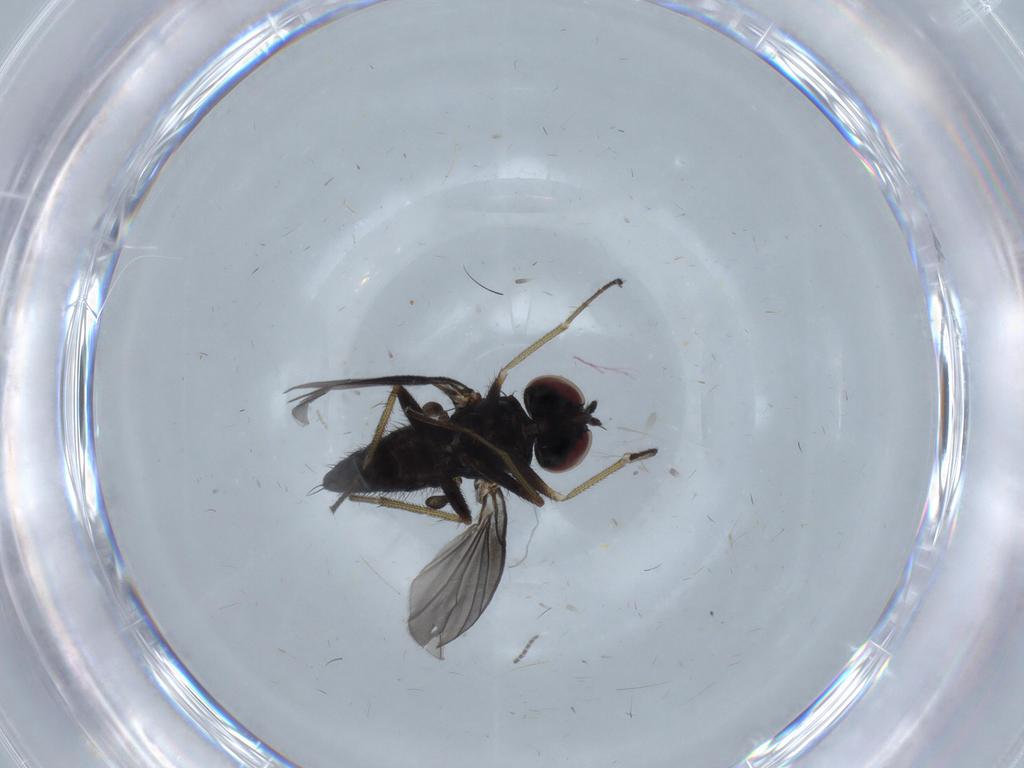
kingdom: Animalia
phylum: Arthropoda
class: Insecta
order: Diptera
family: Dolichopodidae
